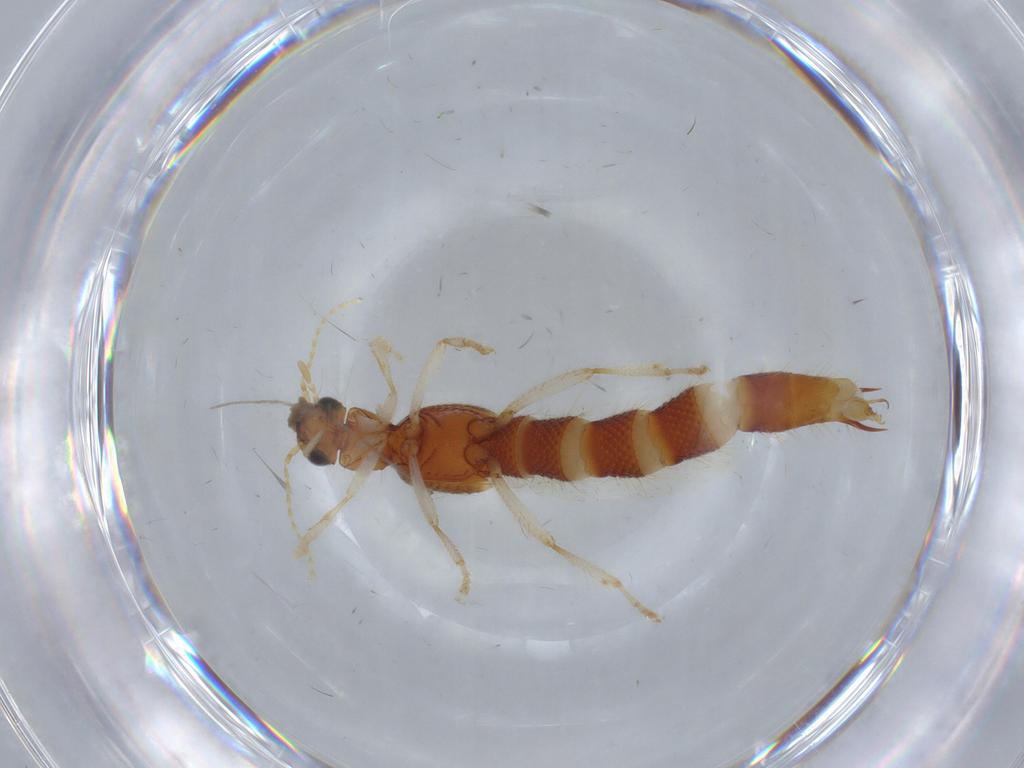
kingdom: Animalia
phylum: Arthropoda
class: Insecta
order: Coleoptera
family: Staphylinidae
